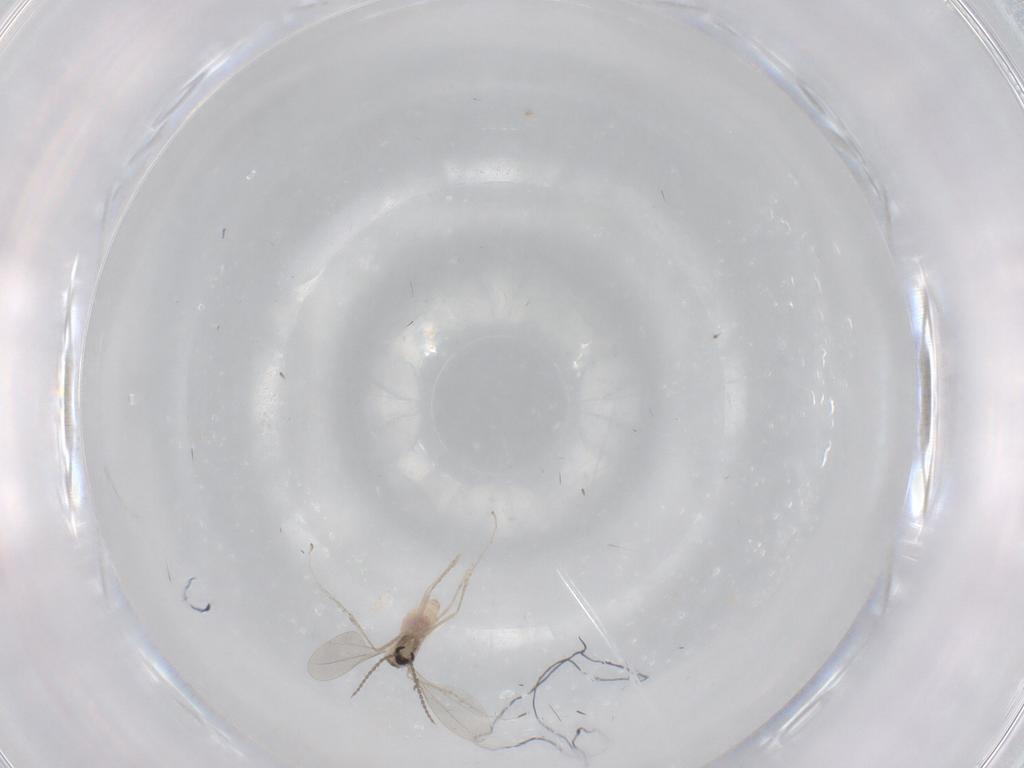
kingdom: Animalia
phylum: Arthropoda
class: Insecta
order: Diptera
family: Cecidomyiidae
